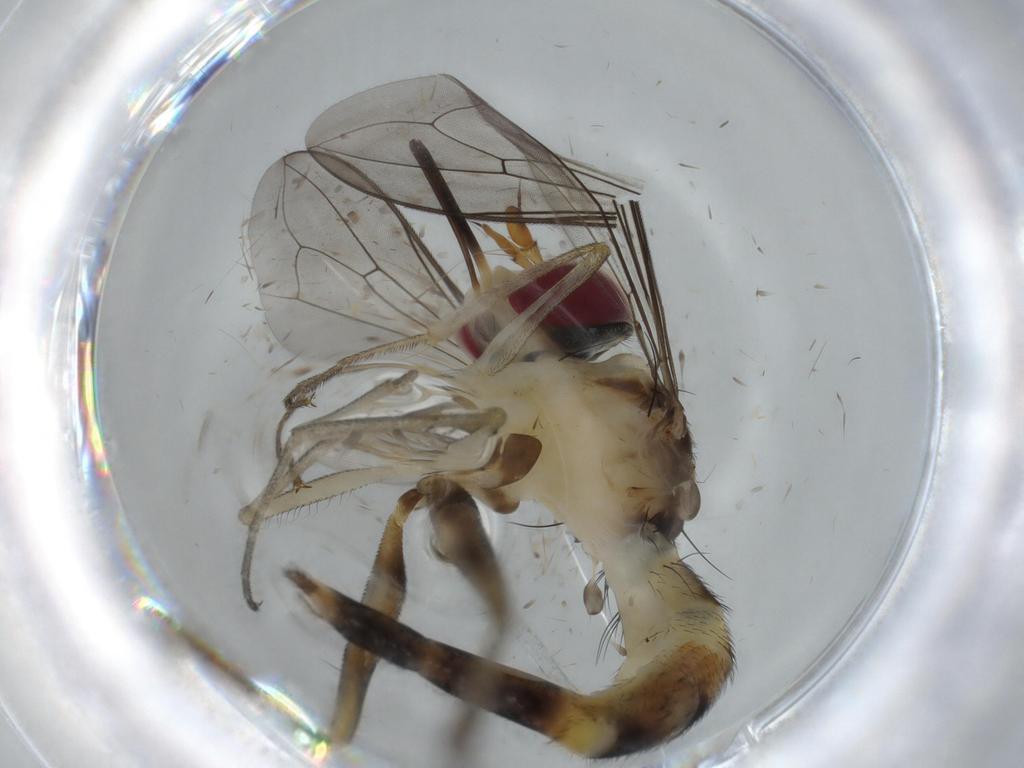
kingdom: Animalia
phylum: Arthropoda
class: Insecta
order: Diptera
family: Conopidae
